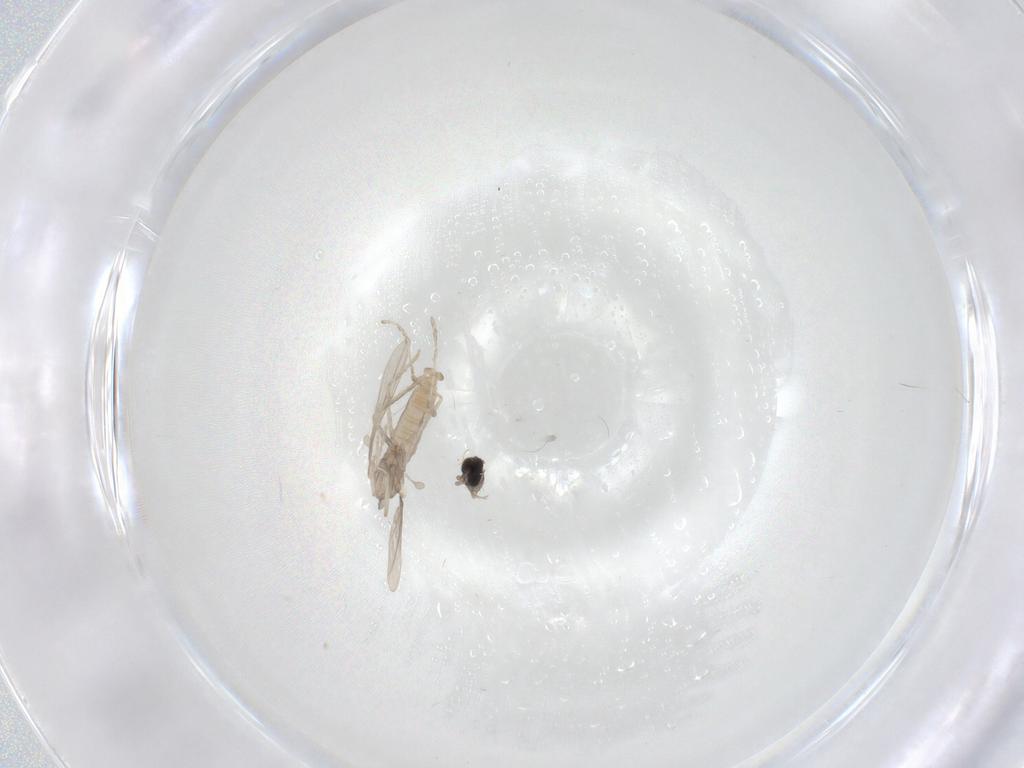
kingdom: Animalia
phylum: Arthropoda
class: Insecta
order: Diptera
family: Cecidomyiidae
